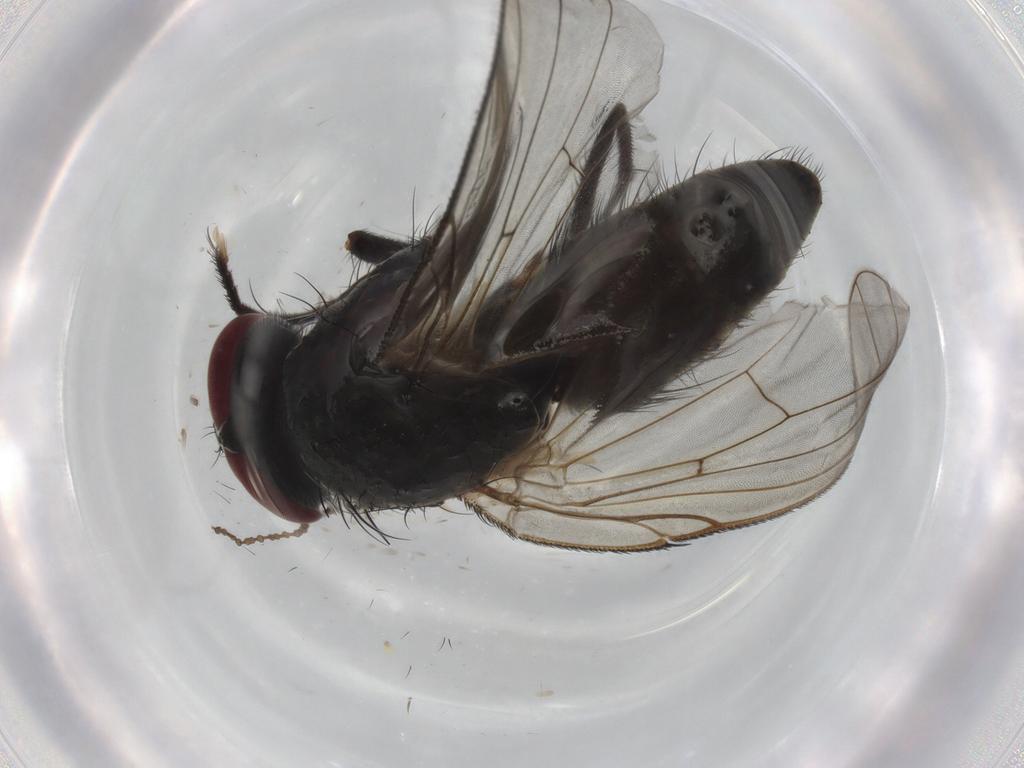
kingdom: Animalia
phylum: Arthropoda
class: Insecta
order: Diptera
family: Muscidae
